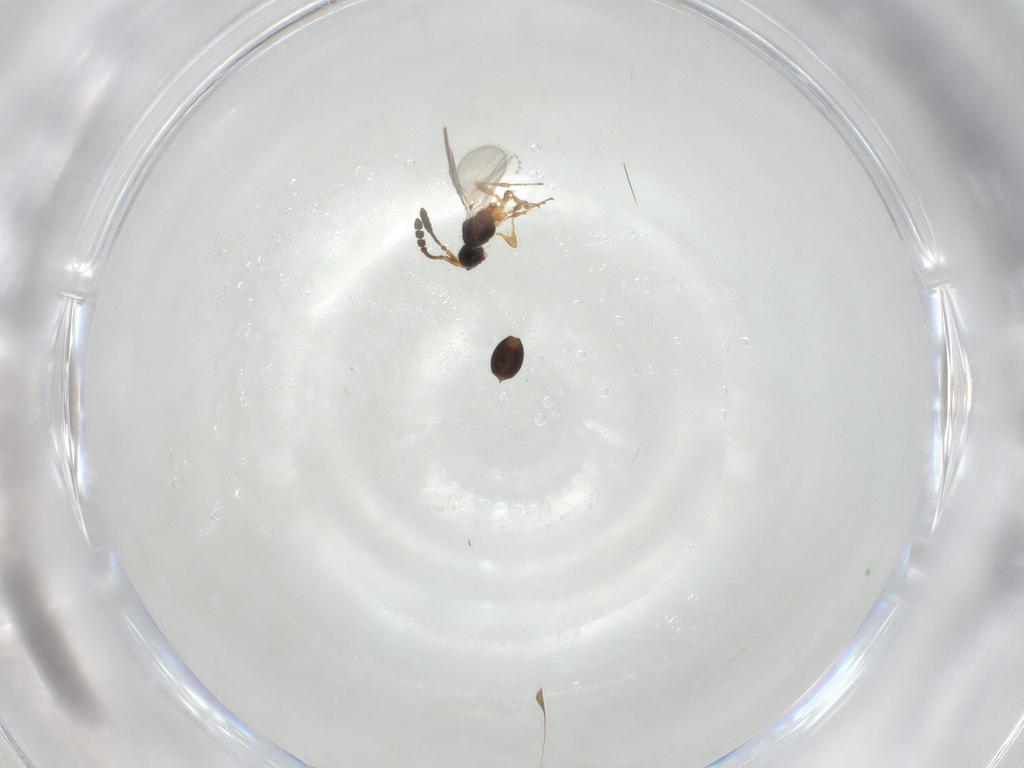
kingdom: Animalia
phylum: Arthropoda
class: Insecta
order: Hymenoptera
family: Diapriidae
